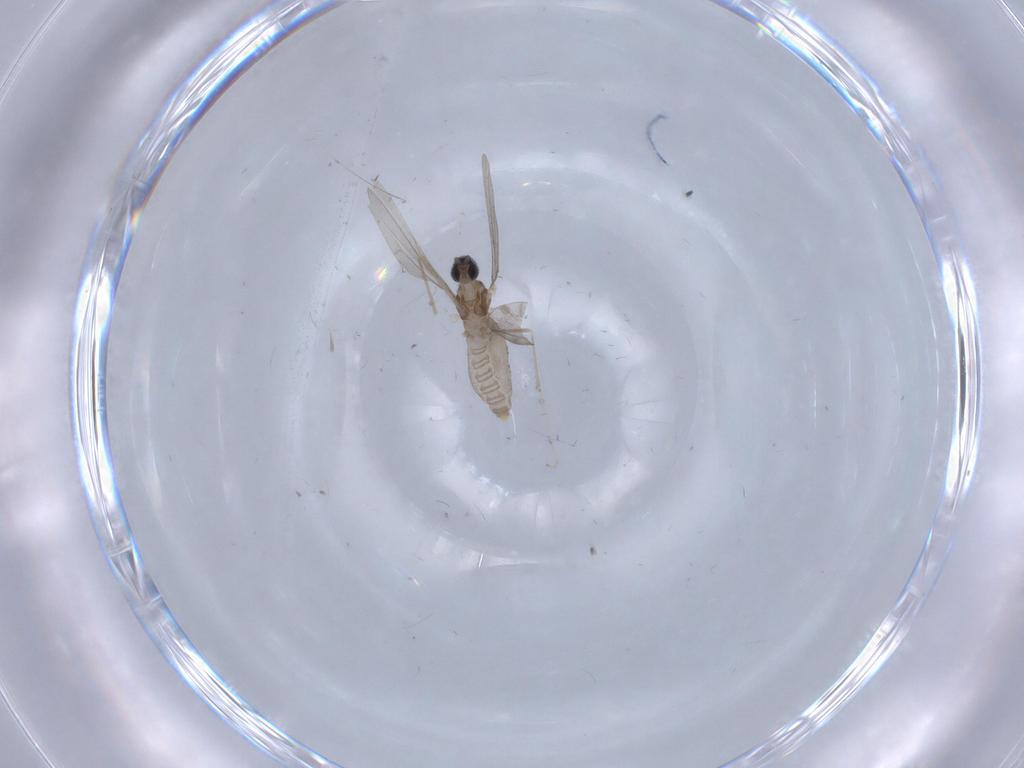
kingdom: Animalia
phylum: Arthropoda
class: Insecta
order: Diptera
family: Cecidomyiidae
